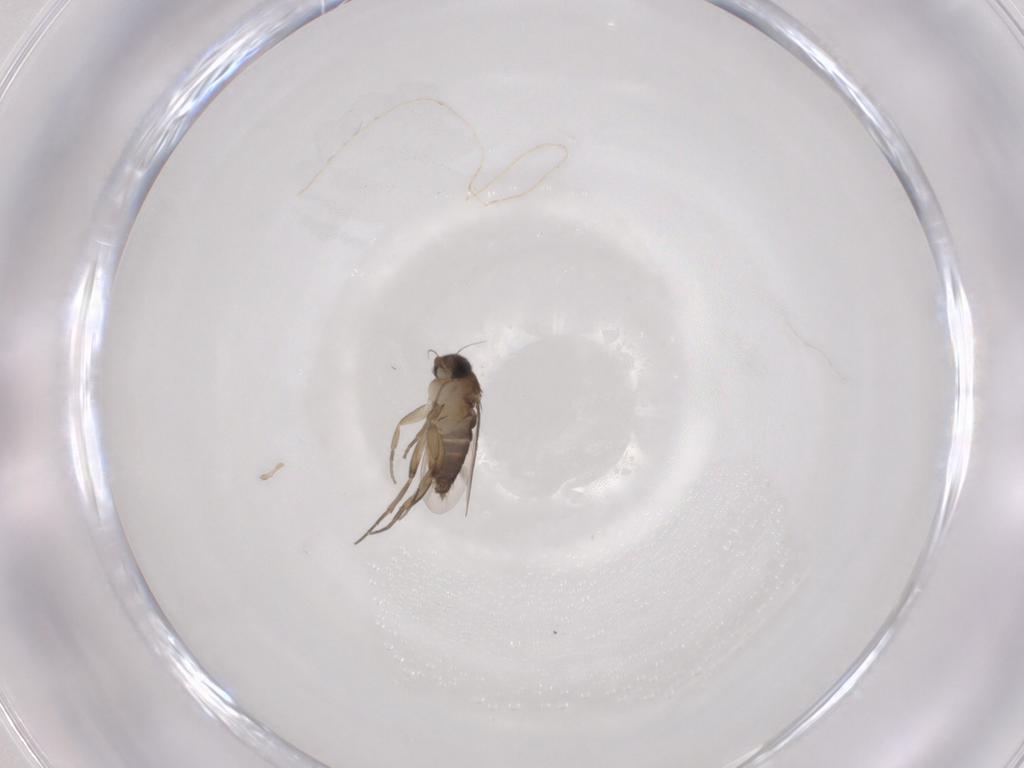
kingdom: Animalia
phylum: Arthropoda
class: Insecta
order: Diptera
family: Phoridae
